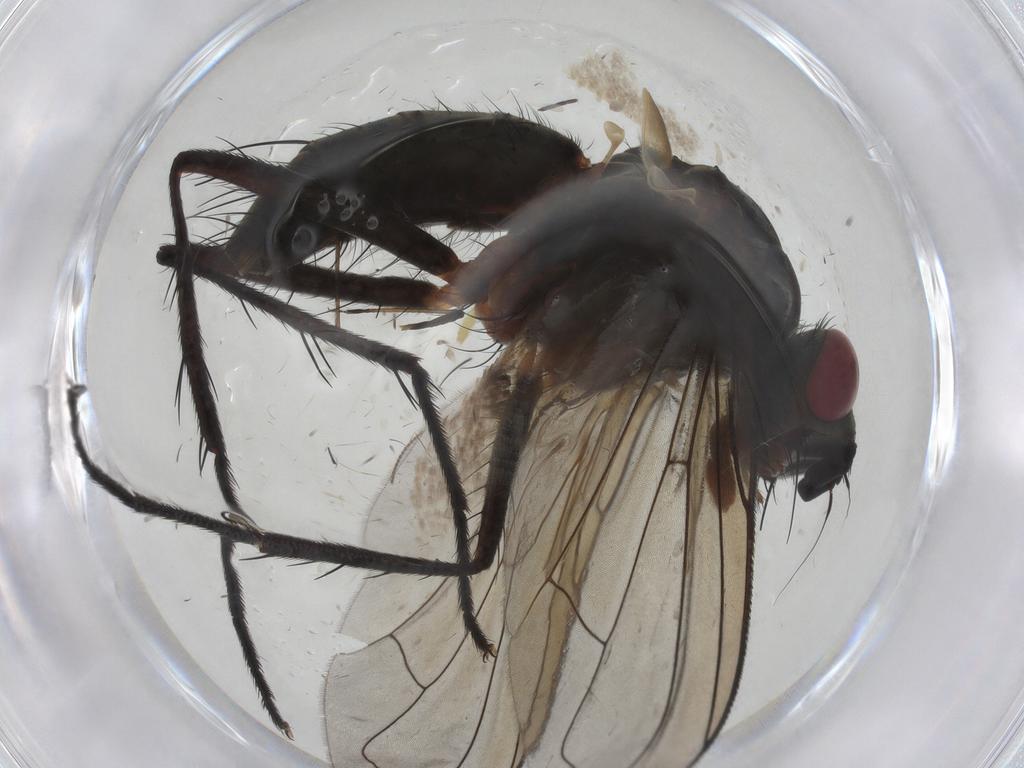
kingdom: Animalia
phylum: Arthropoda
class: Insecta
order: Diptera
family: Tachinidae
